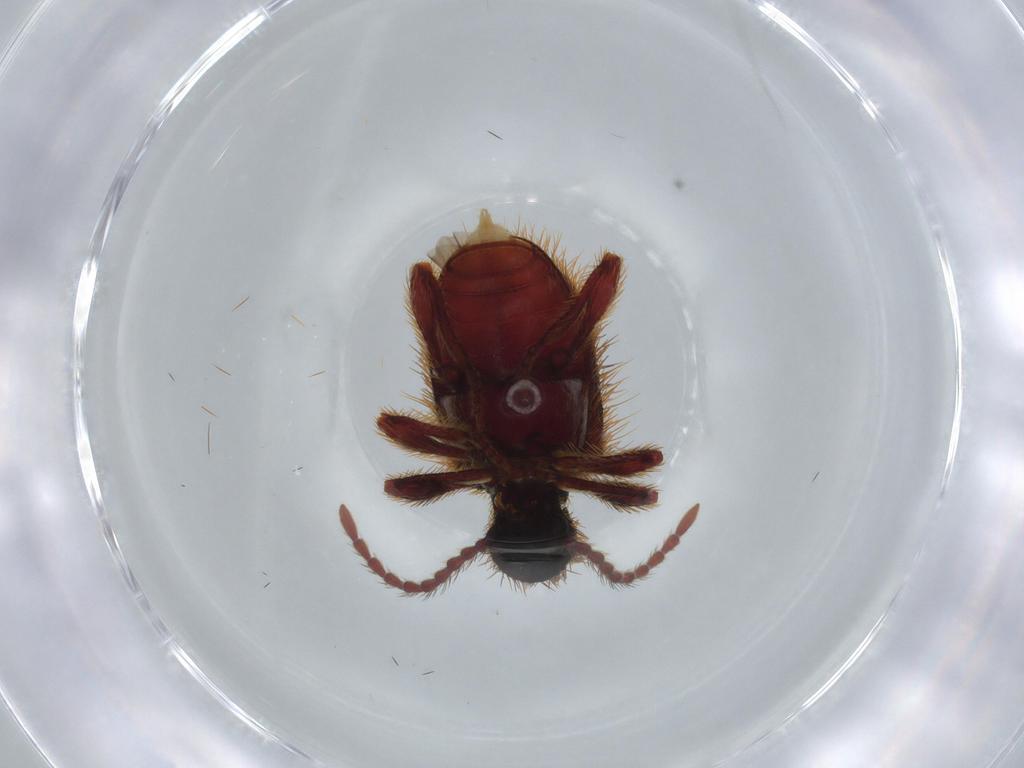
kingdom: Animalia
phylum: Arthropoda
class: Insecta
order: Coleoptera
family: Ptinidae
